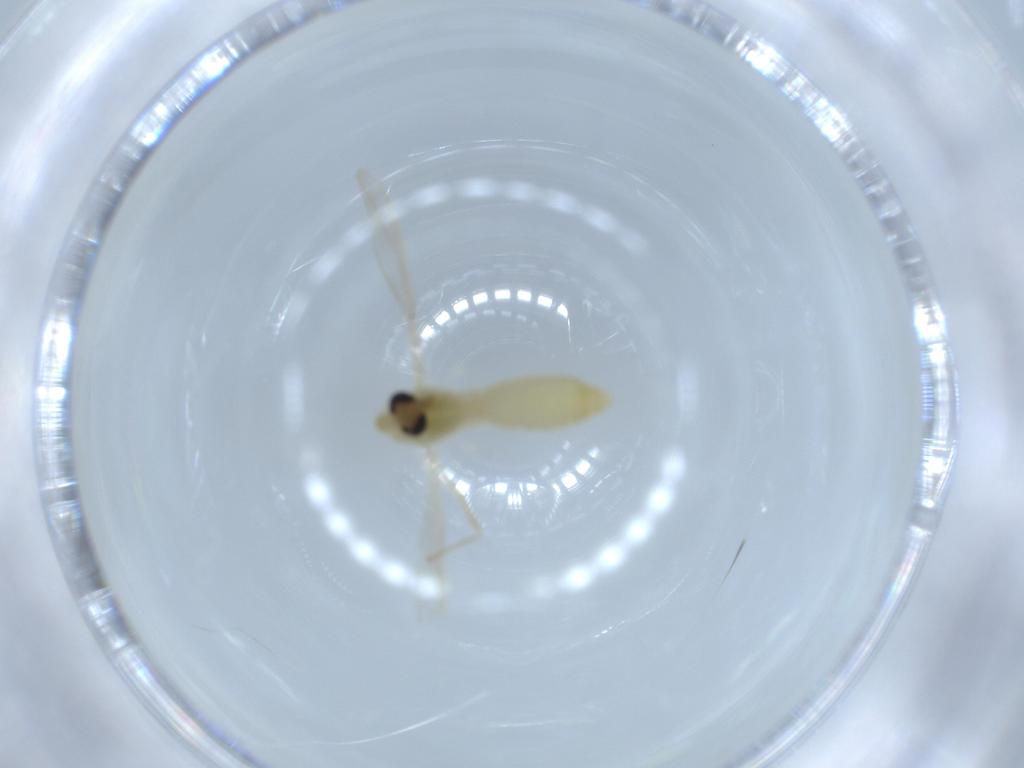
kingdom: Animalia
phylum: Arthropoda
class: Insecta
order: Diptera
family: Chironomidae
